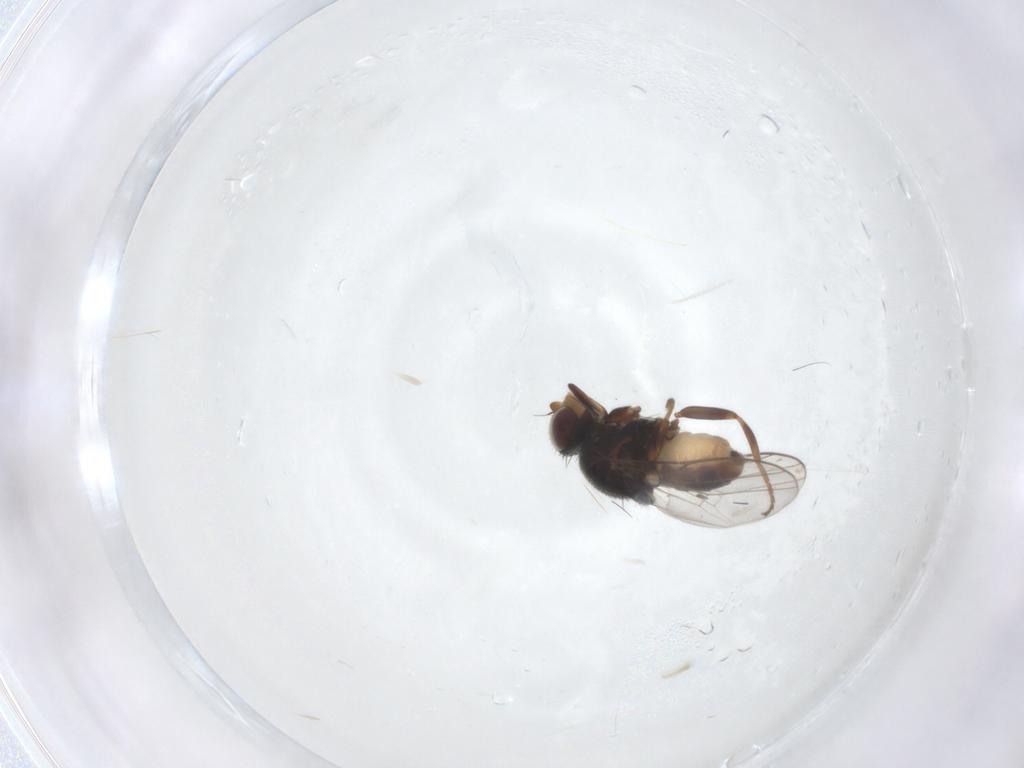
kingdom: Animalia
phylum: Arthropoda
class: Insecta
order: Diptera
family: Chloropidae
